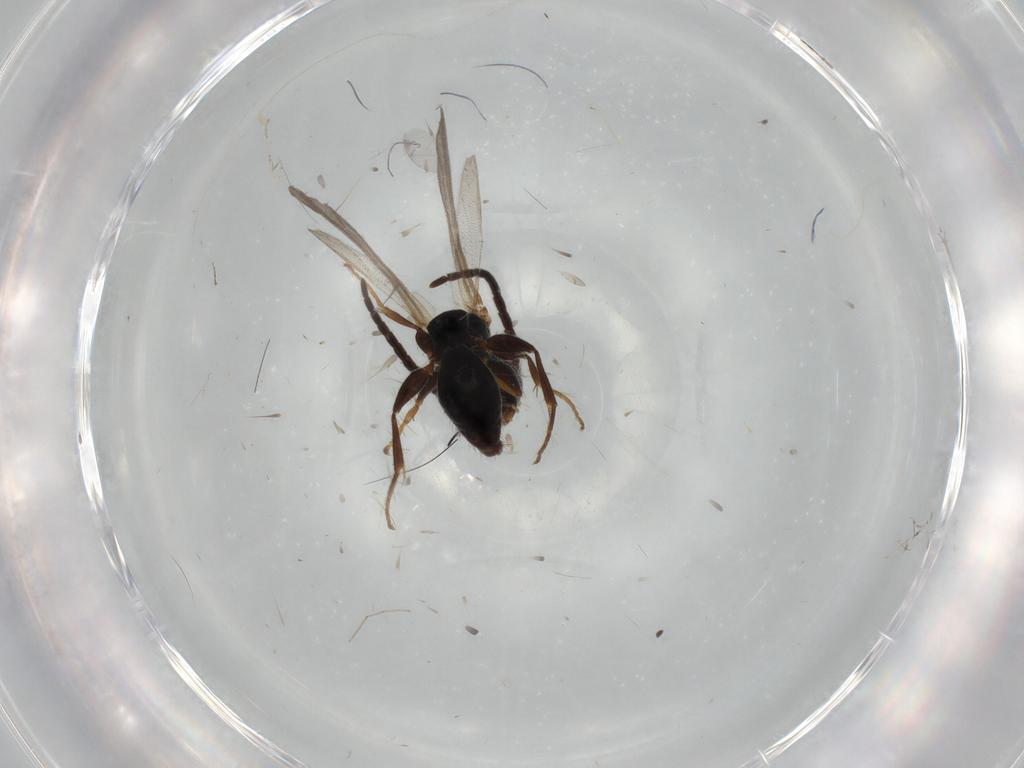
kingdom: Animalia
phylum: Arthropoda
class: Insecta
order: Hymenoptera
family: Bethylidae
